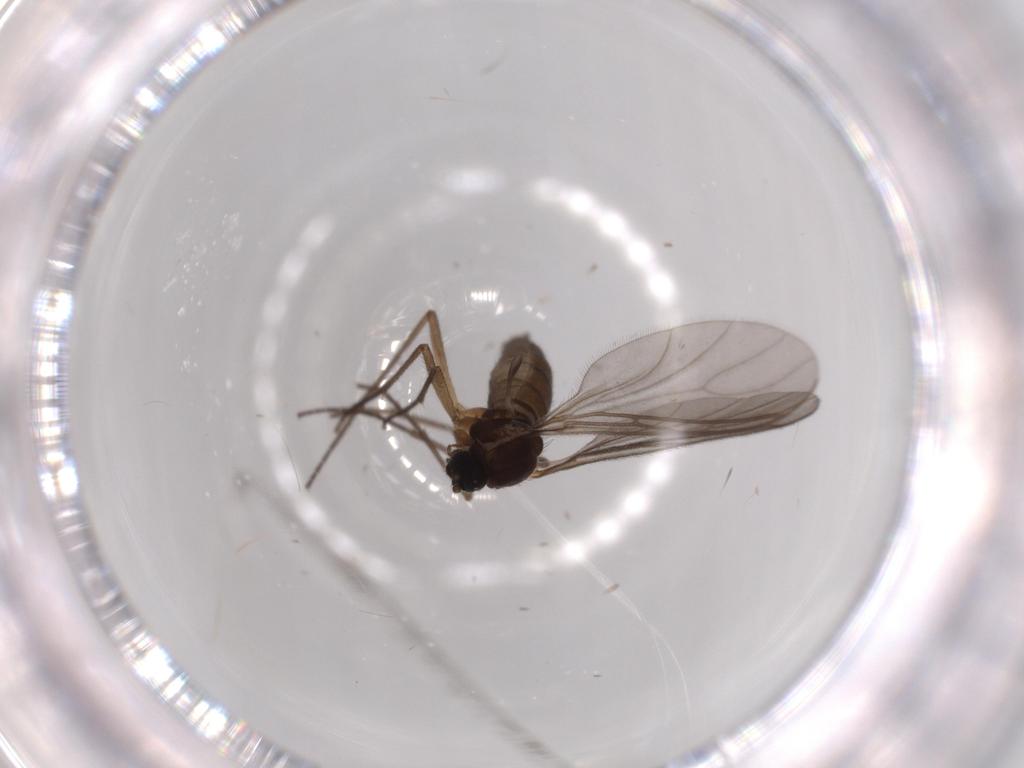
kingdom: Animalia
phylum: Arthropoda
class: Insecta
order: Diptera
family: Sciaridae
